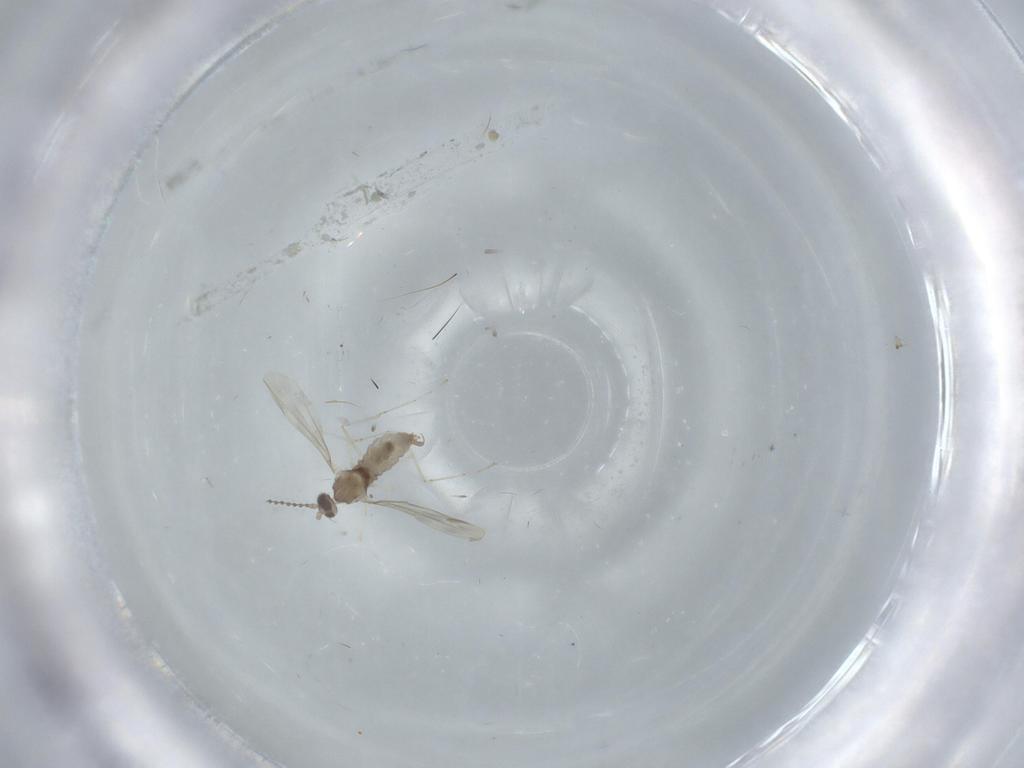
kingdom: Animalia
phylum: Arthropoda
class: Insecta
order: Diptera
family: Cecidomyiidae
